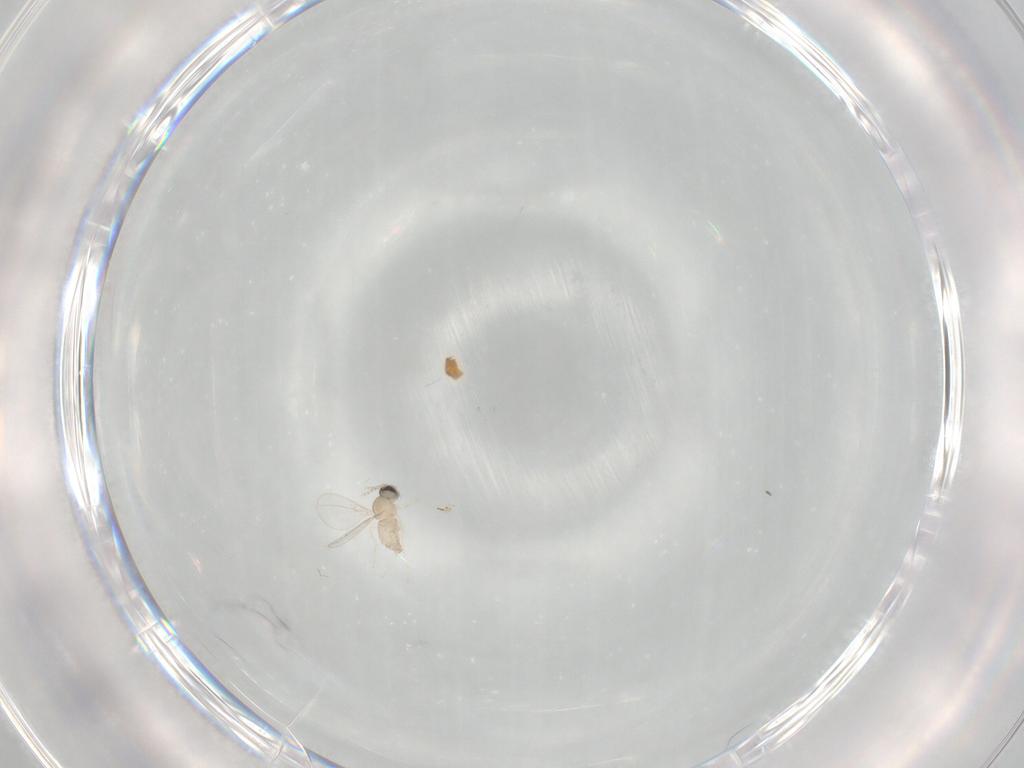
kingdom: Animalia
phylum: Arthropoda
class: Insecta
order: Diptera
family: Cecidomyiidae
